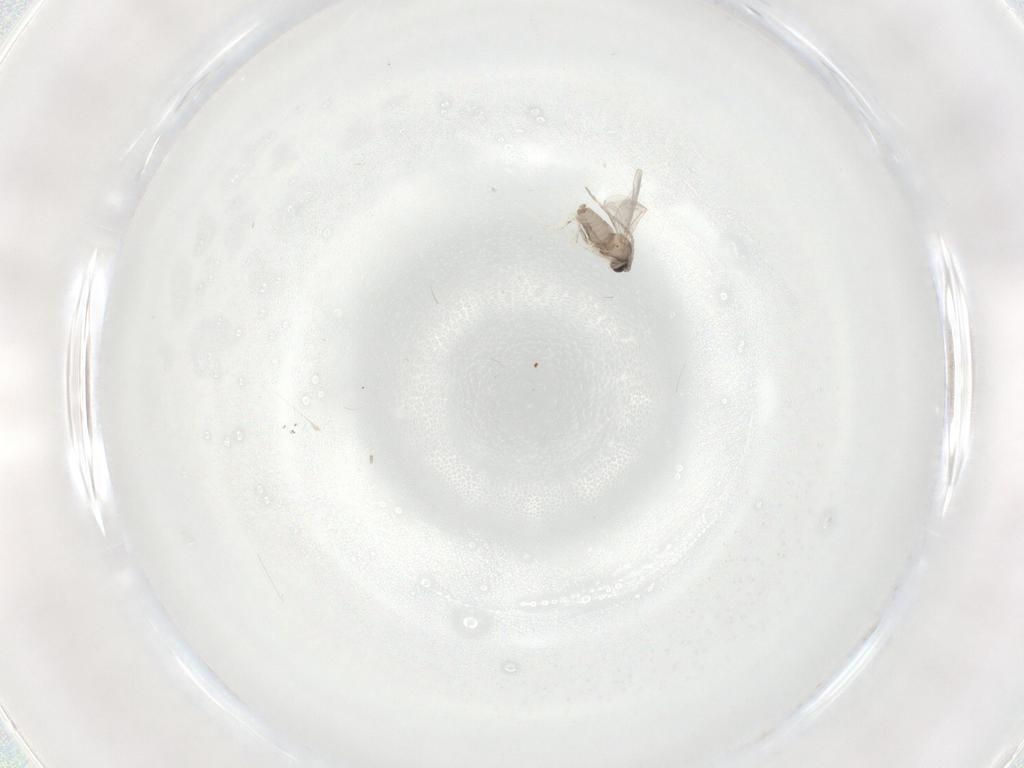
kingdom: Animalia
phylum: Arthropoda
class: Insecta
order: Diptera
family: Cecidomyiidae
